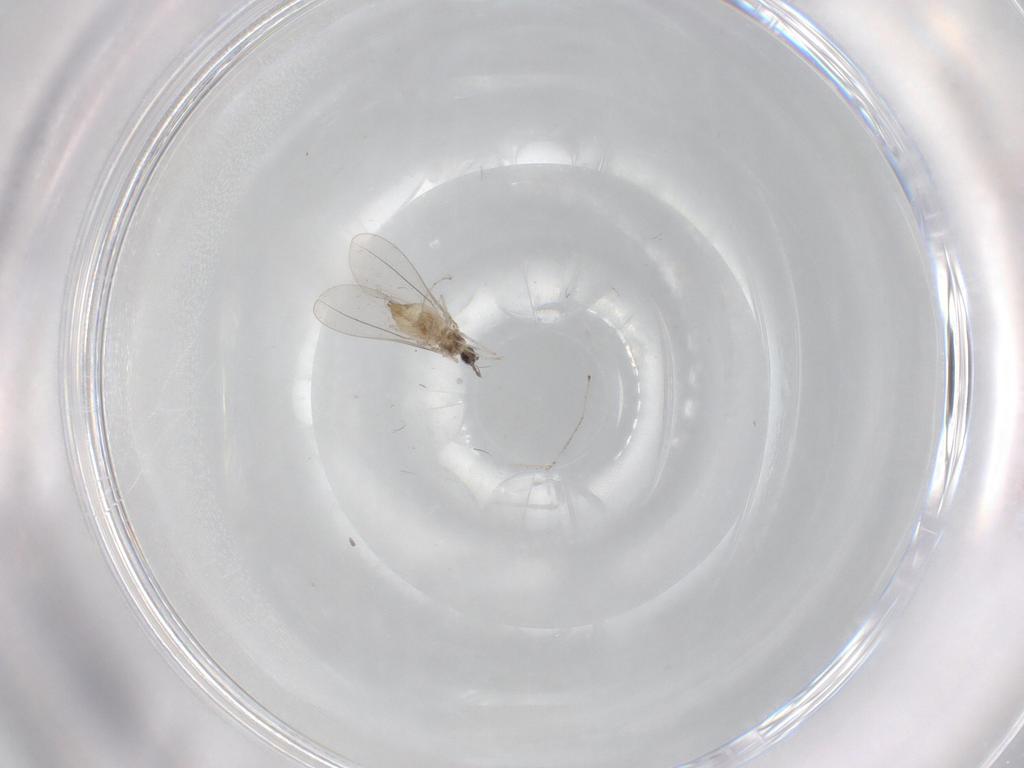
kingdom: Animalia
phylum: Arthropoda
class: Insecta
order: Diptera
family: Cecidomyiidae
